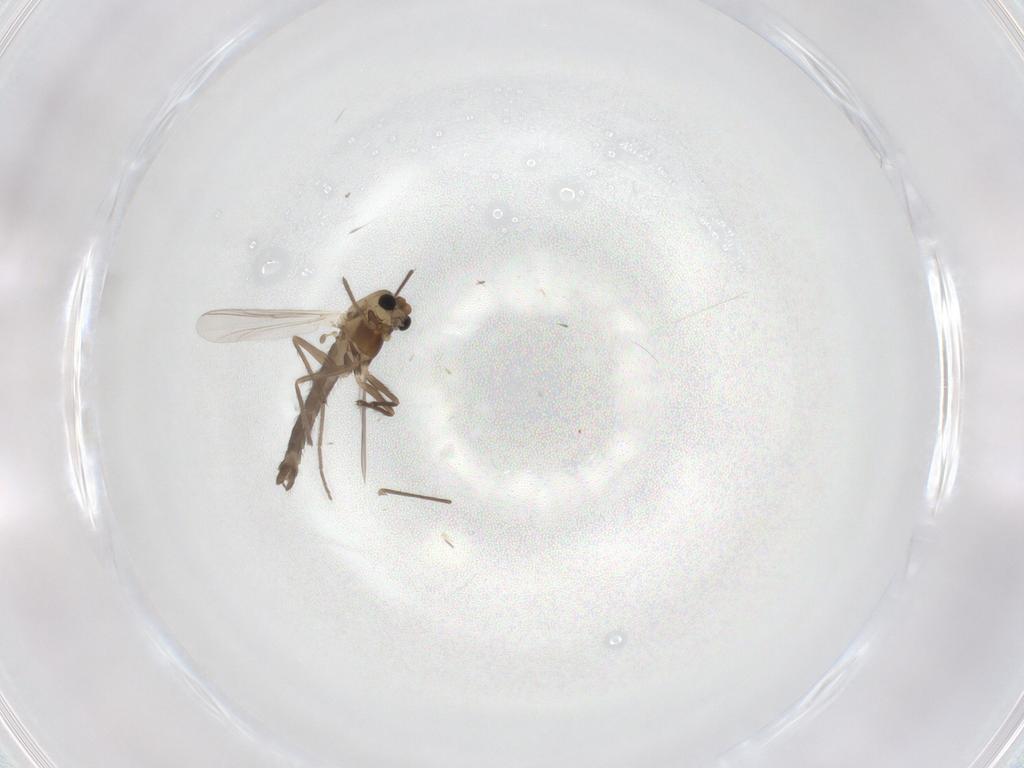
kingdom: Animalia
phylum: Arthropoda
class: Insecta
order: Diptera
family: Chironomidae
